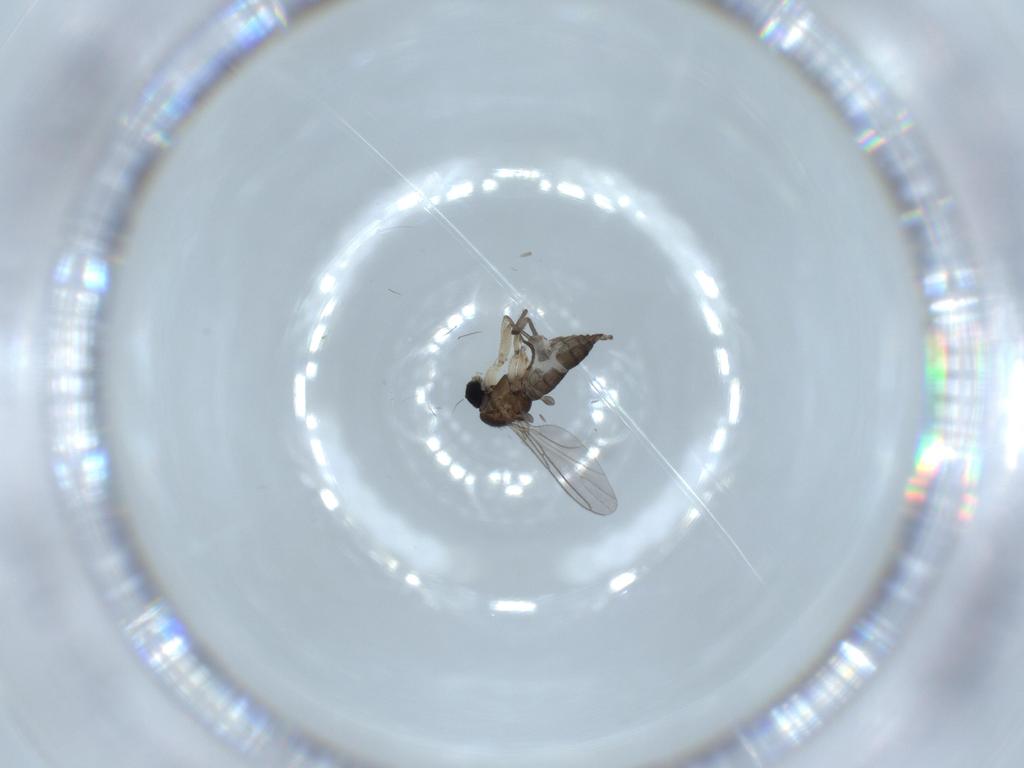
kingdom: Animalia
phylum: Arthropoda
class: Insecta
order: Diptera
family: Sciaridae
